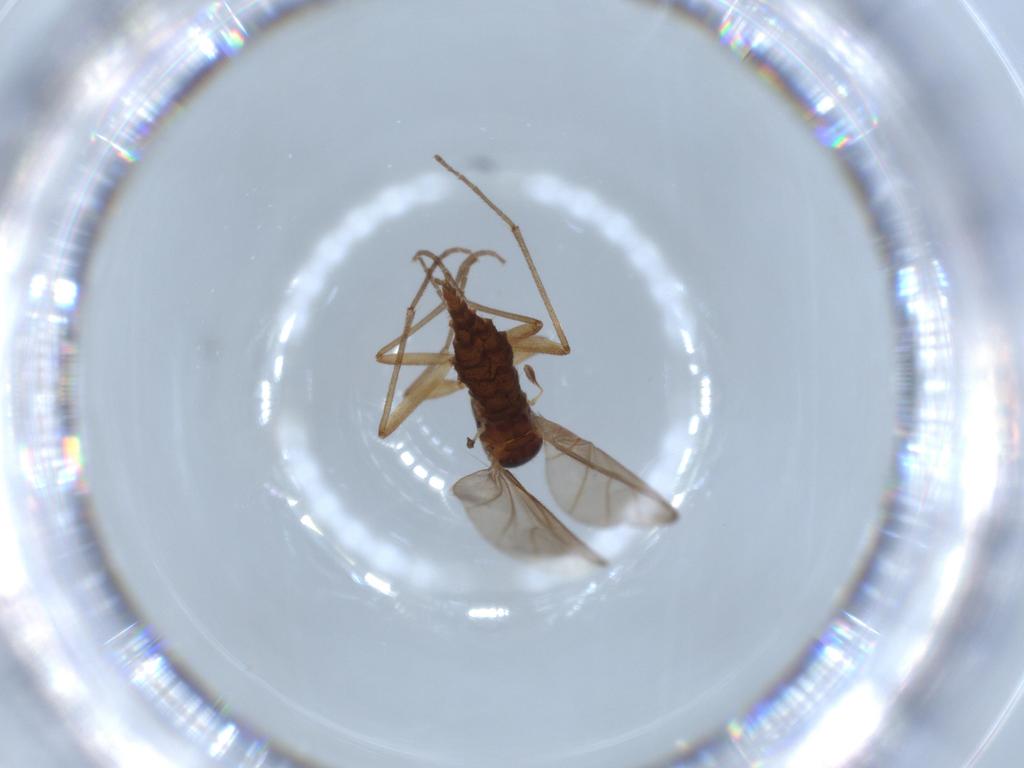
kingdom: Animalia
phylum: Arthropoda
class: Insecta
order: Diptera
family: Sciaridae
